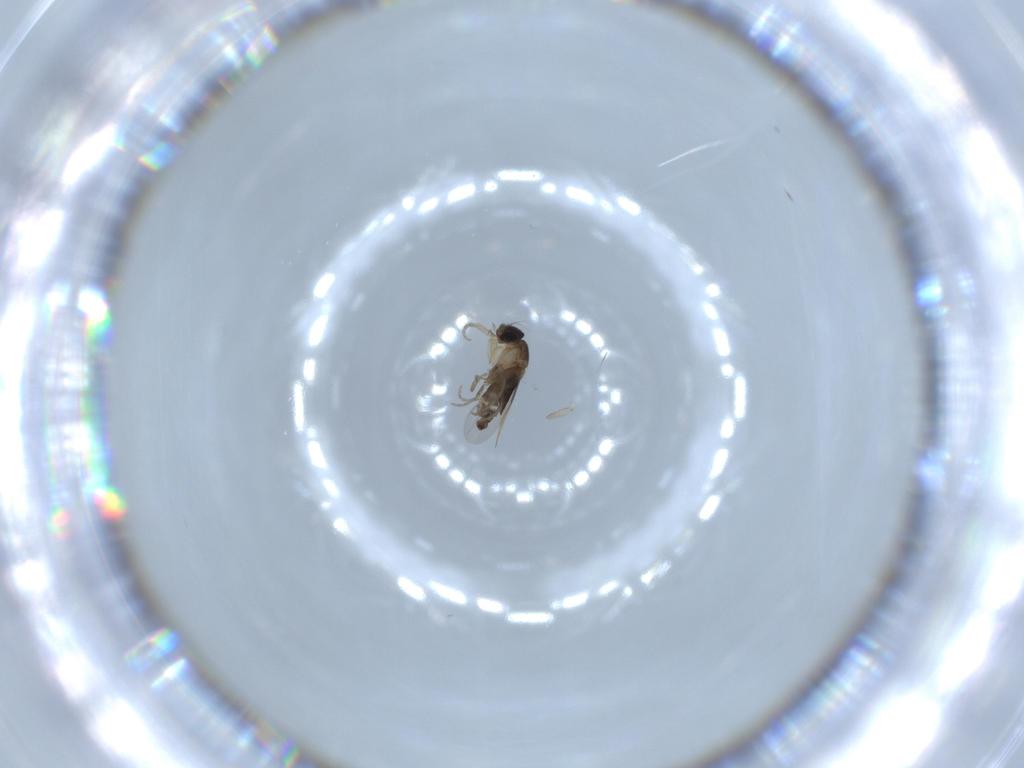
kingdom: Animalia
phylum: Arthropoda
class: Insecta
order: Diptera
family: Phoridae
